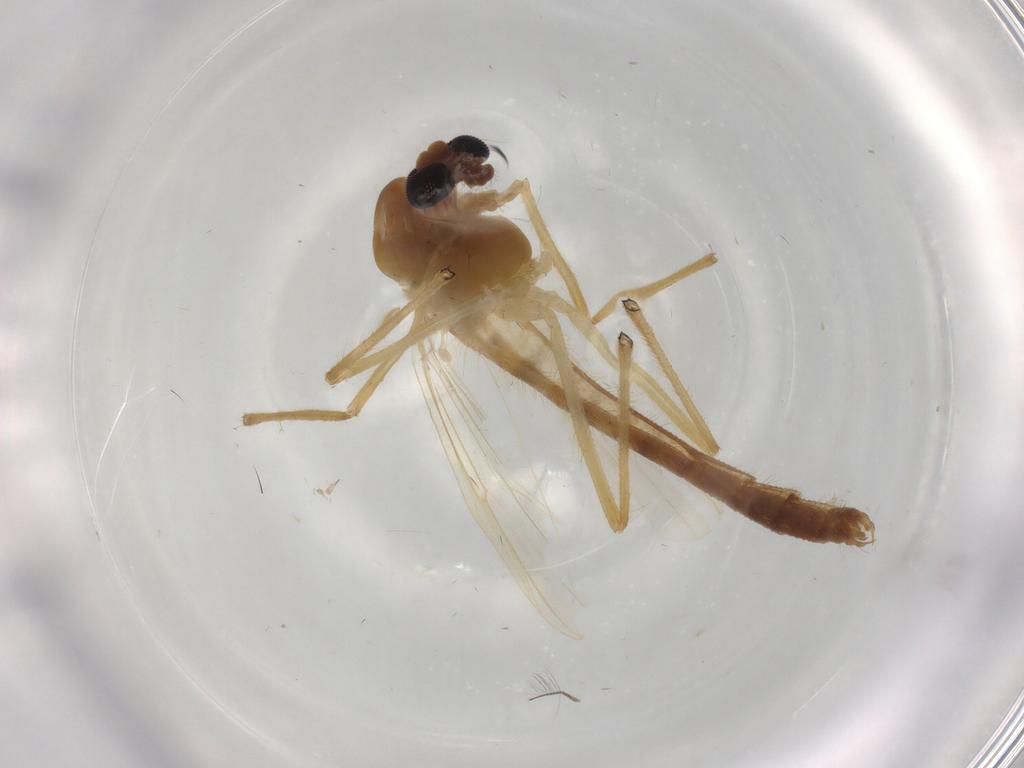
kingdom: Animalia
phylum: Arthropoda
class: Insecta
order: Diptera
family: Chironomidae
